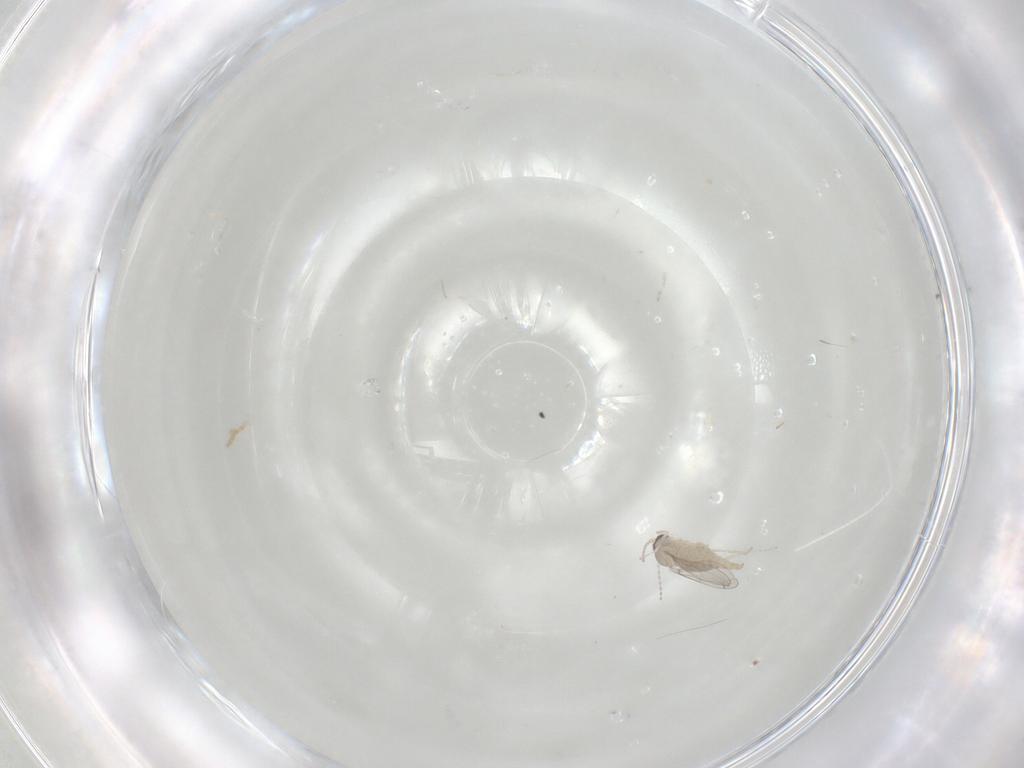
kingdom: Animalia
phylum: Arthropoda
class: Insecta
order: Diptera
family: Cecidomyiidae
